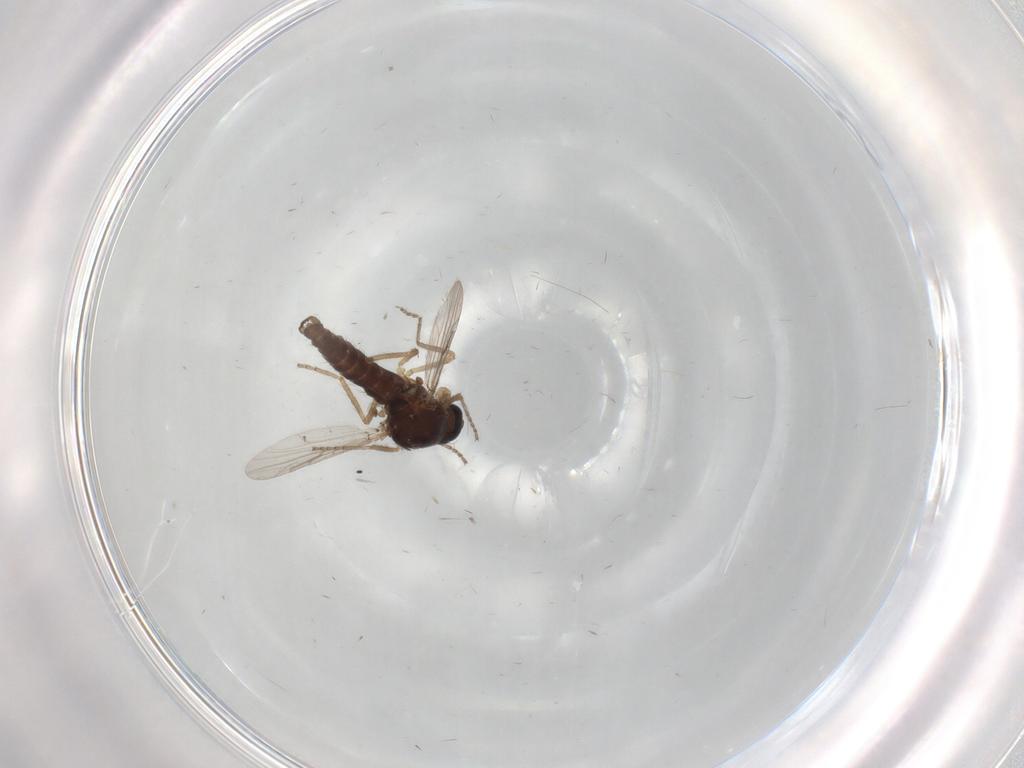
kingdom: Animalia
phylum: Arthropoda
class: Insecta
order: Diptera
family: Ceratopogonidae
